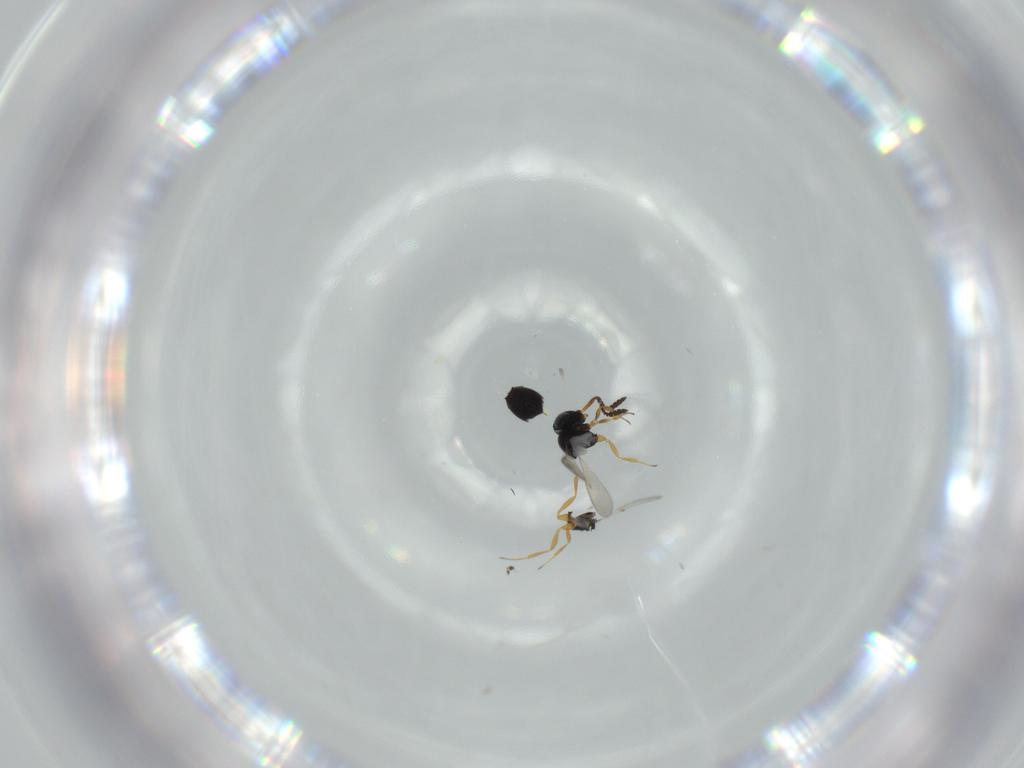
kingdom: Animalia
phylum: Arthropoda
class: Insecta
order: Hymenoptera
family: Scelionidae
